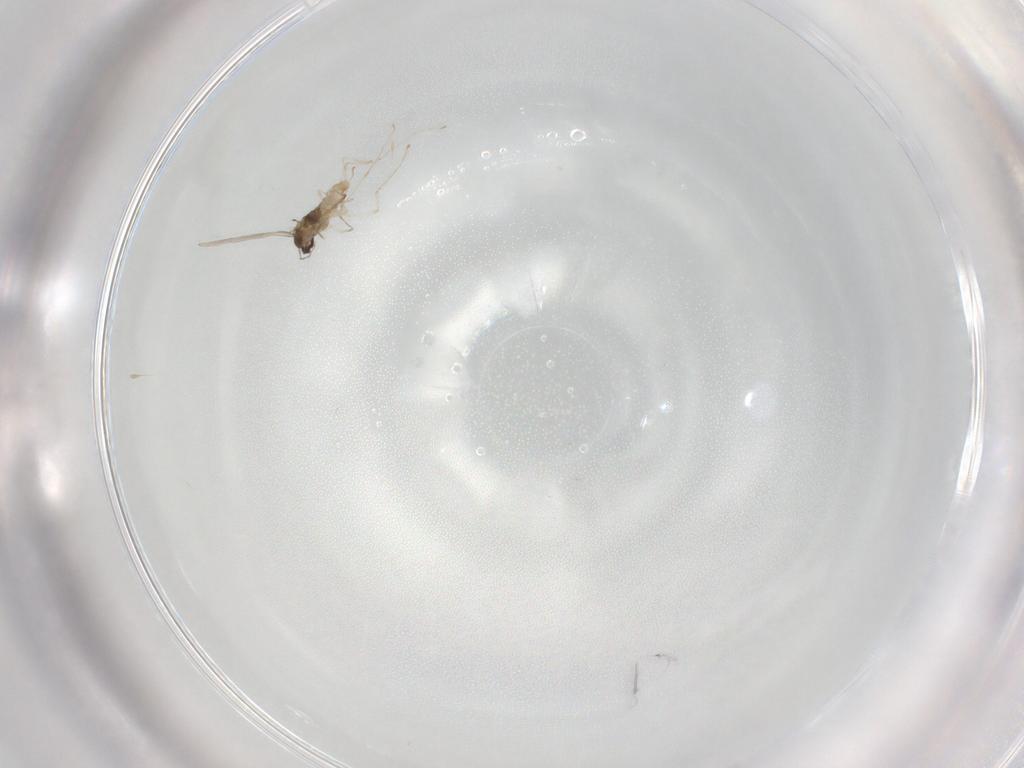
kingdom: Animalia
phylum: Arthropoda
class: Insecta
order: Diptera
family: Cecidomyiidae
